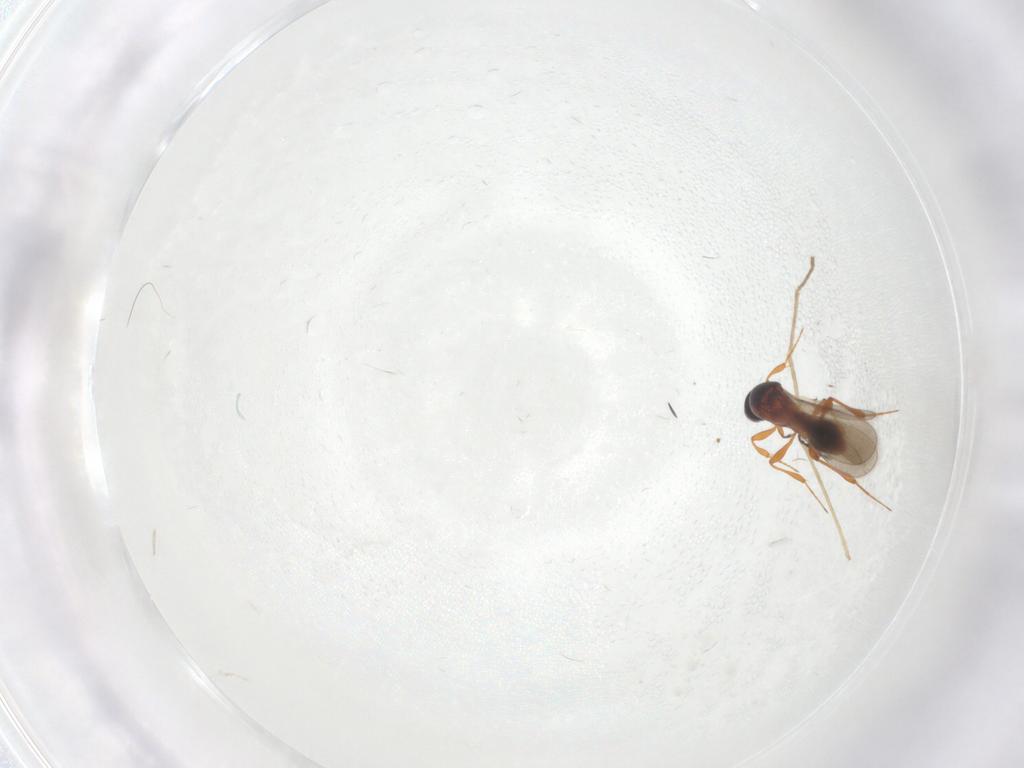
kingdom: Animalia
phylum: Arthropoda
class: Insecta
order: Diptera
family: Chironomidae
